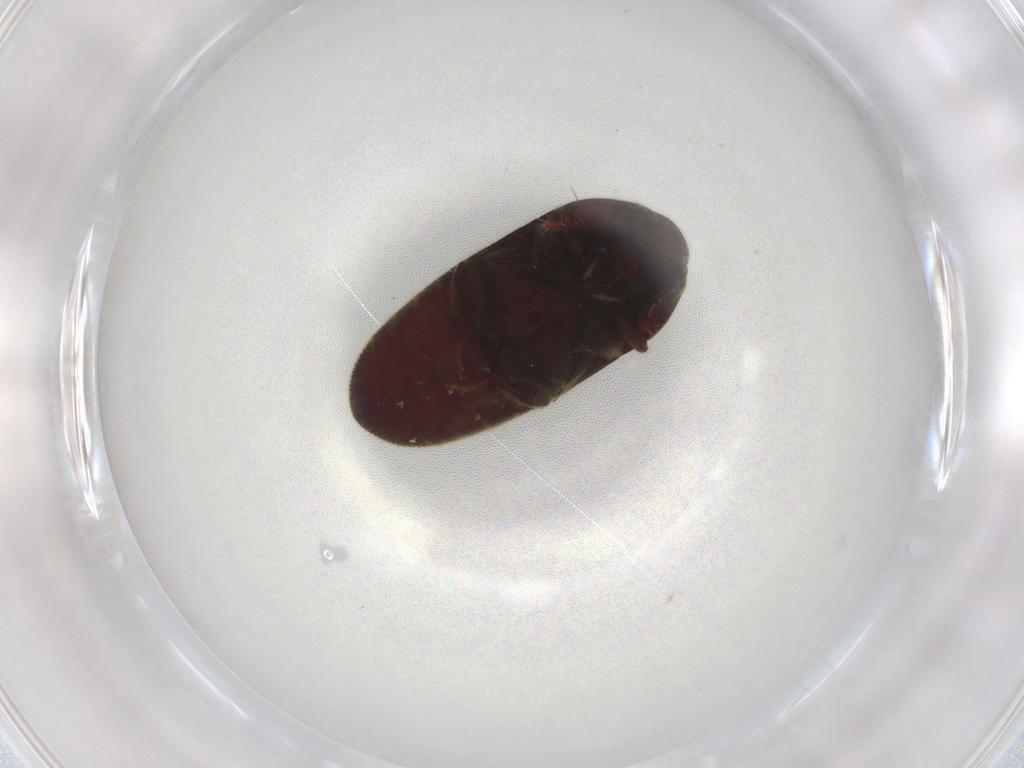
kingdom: Animalia
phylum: Arthropoda
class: Insecta
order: Coleoptera
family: Throscidae
